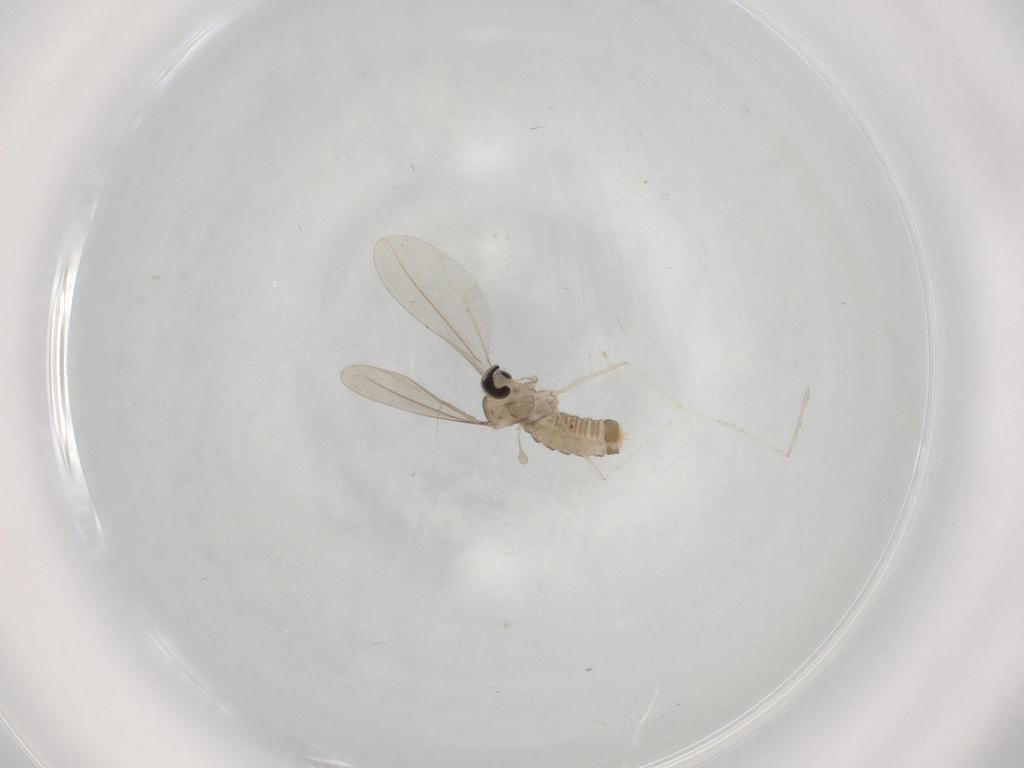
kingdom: Animalia
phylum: Arthropoda
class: Insecta
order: Diptera
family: Cecidomyiidae
